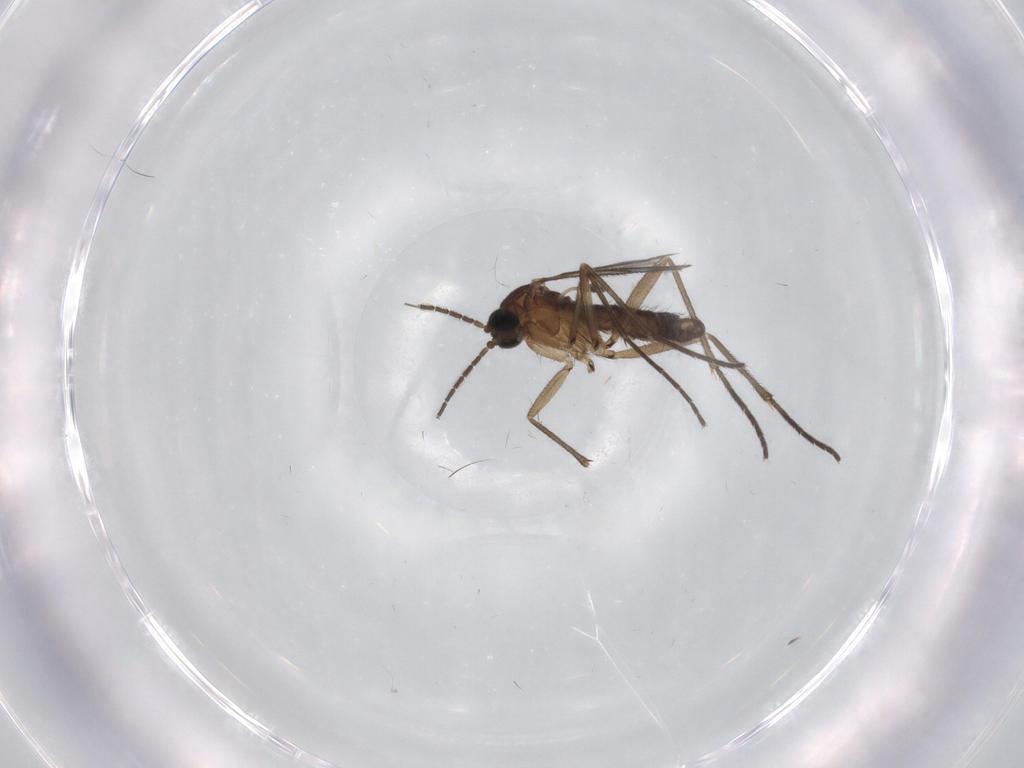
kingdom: Animalia
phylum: Arthropoda
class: Insecta
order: Diptera
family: Sciaridae
